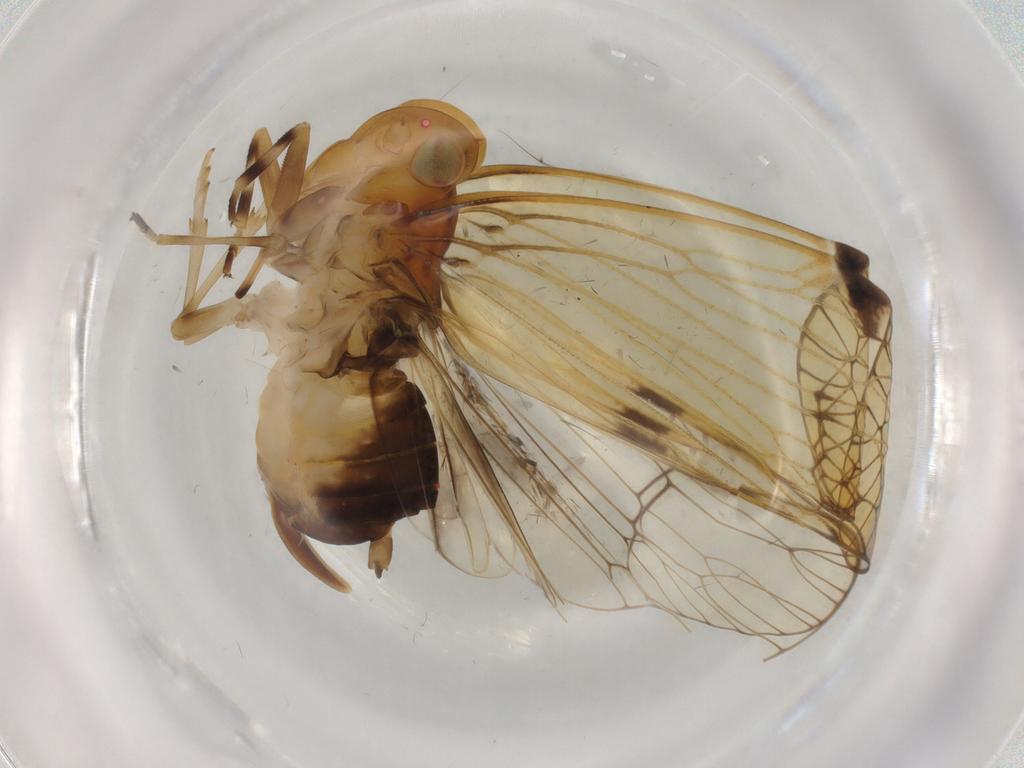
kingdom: Animalia
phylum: Arthropoda
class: Insecta
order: Hemiptera
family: Cixiidae
